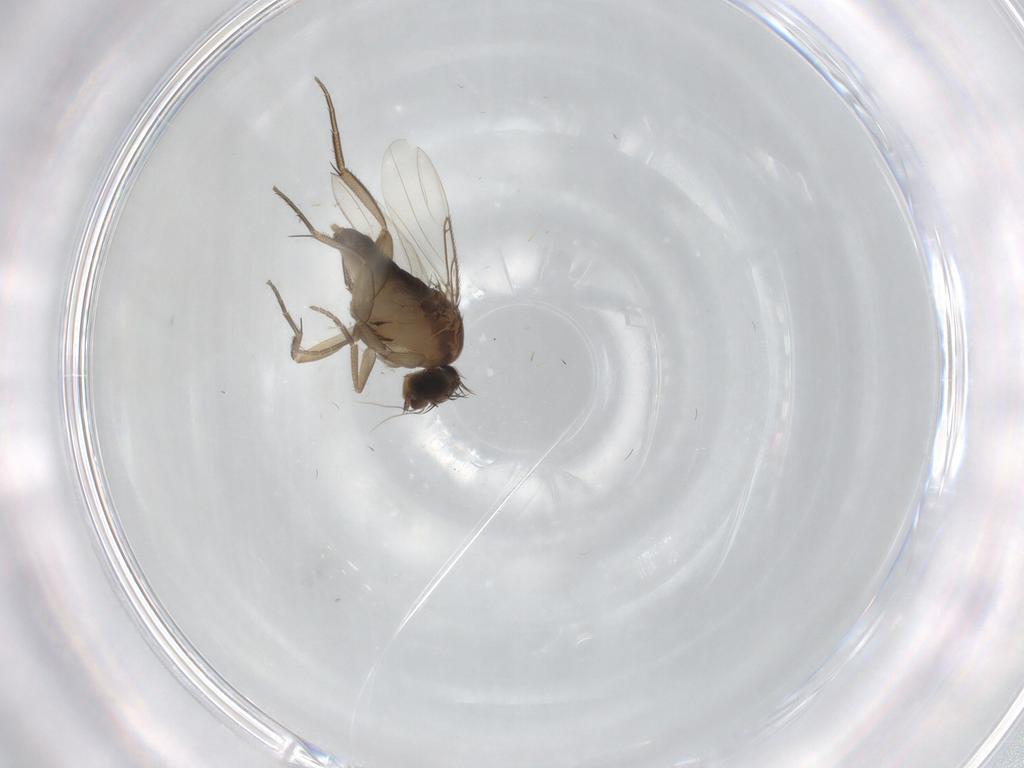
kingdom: Animalia
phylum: Arthropoda
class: Insecta
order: Diptera
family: Phoridae
